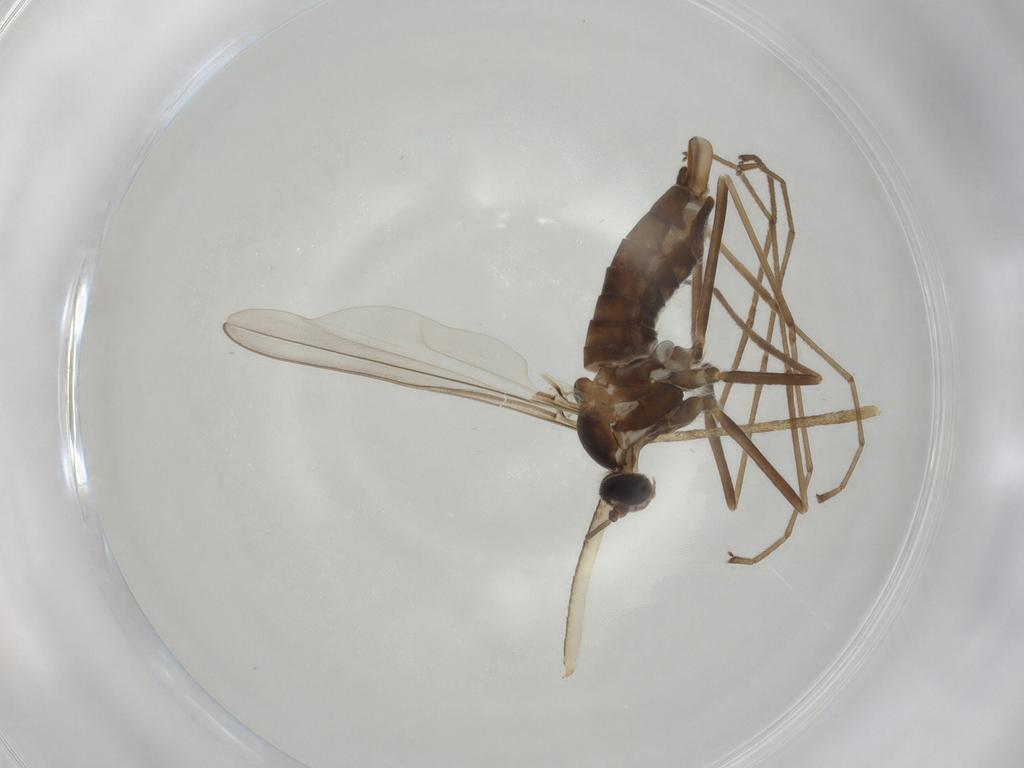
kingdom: Animalia
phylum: Arthropoda
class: Insecta
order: Diptera
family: Cecidomyiidae
